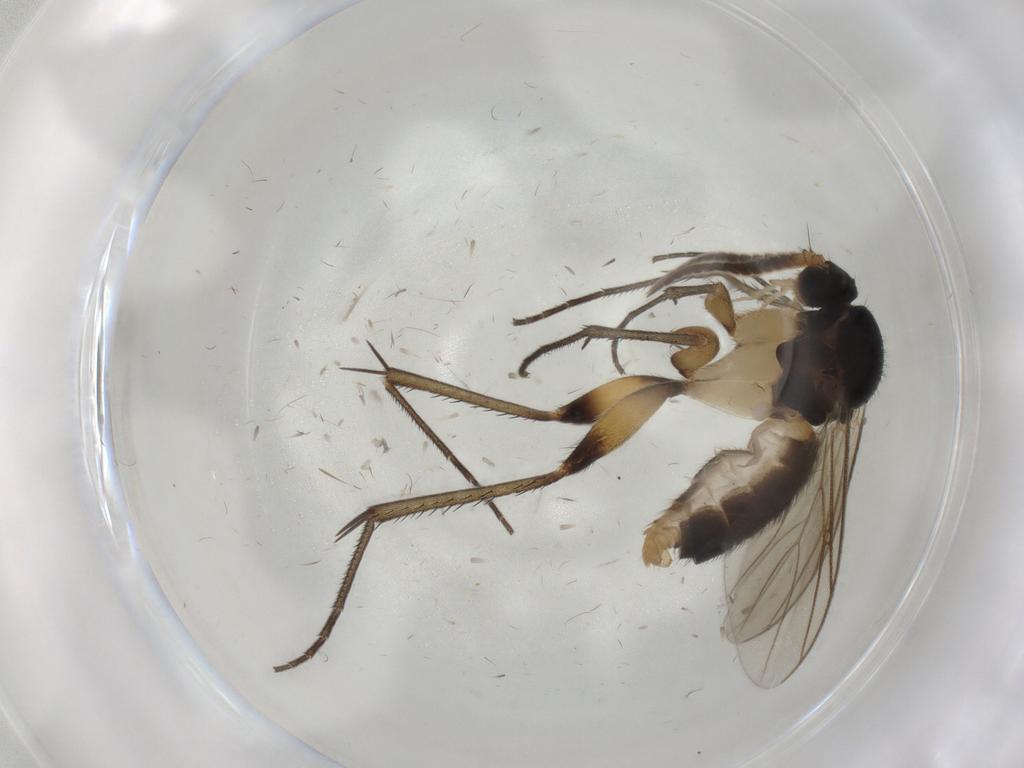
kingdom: Animalia
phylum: Arthropoda
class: Insecta
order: Diptera
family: Mycetophilidae
